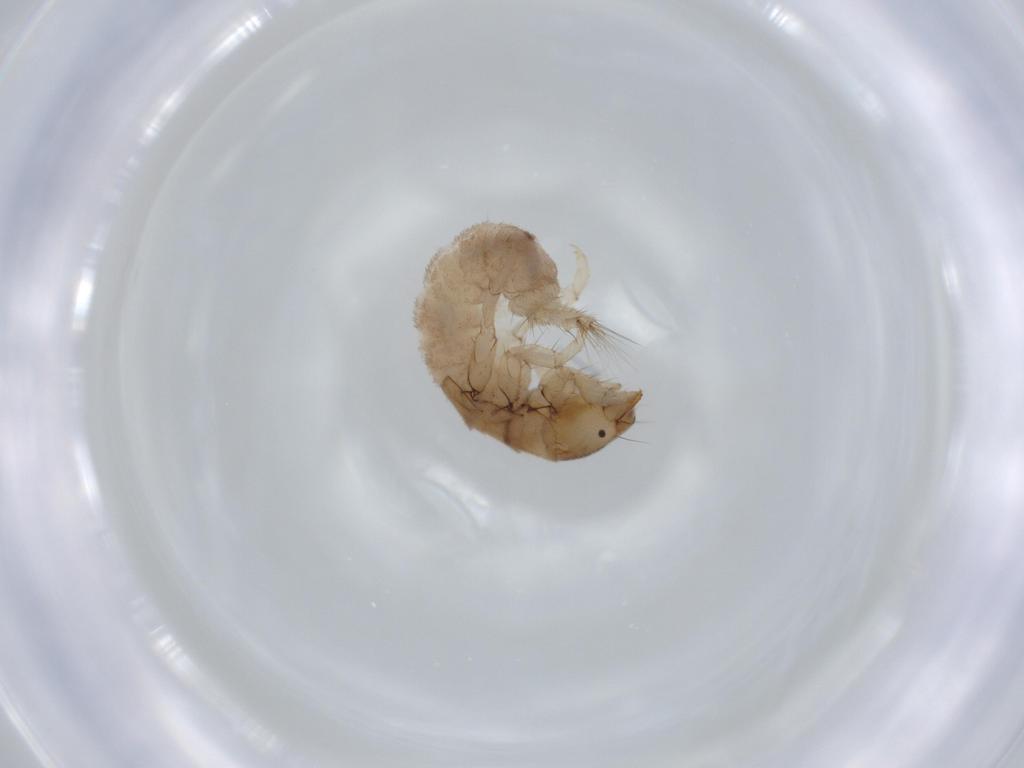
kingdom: Animalia
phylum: Arthropoda
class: Insecta
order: Trichoptera
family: Hydropsychidae
